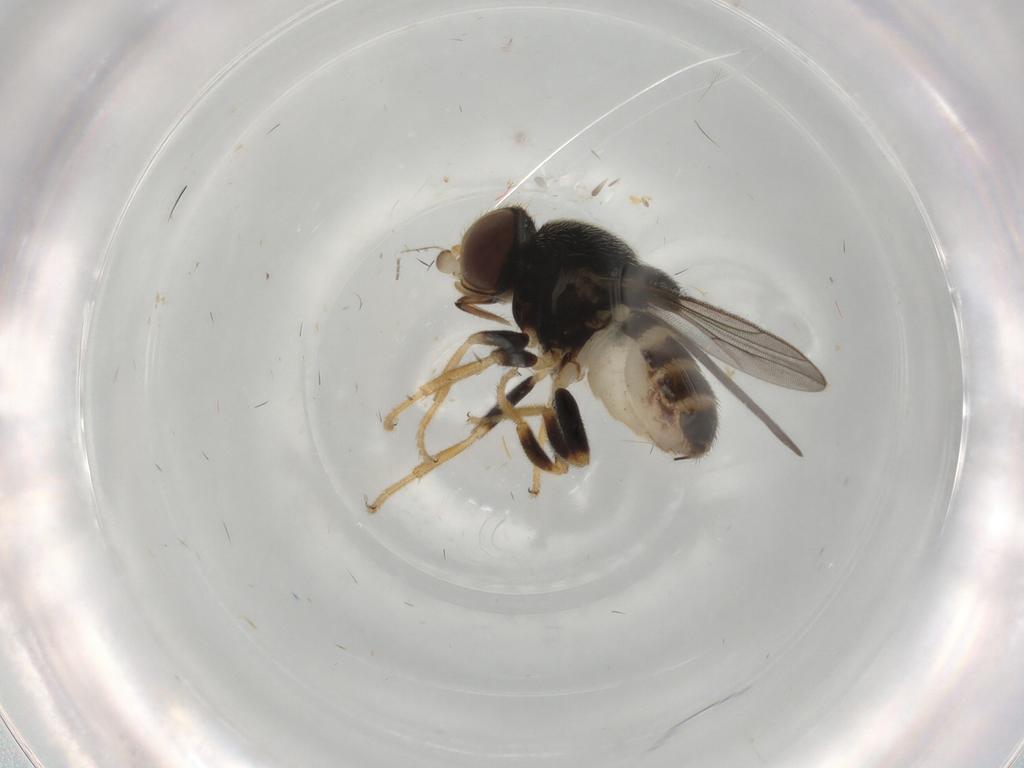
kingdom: Animalia
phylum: Arthropoda
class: Insecta
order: Diptera
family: Chloropidae
